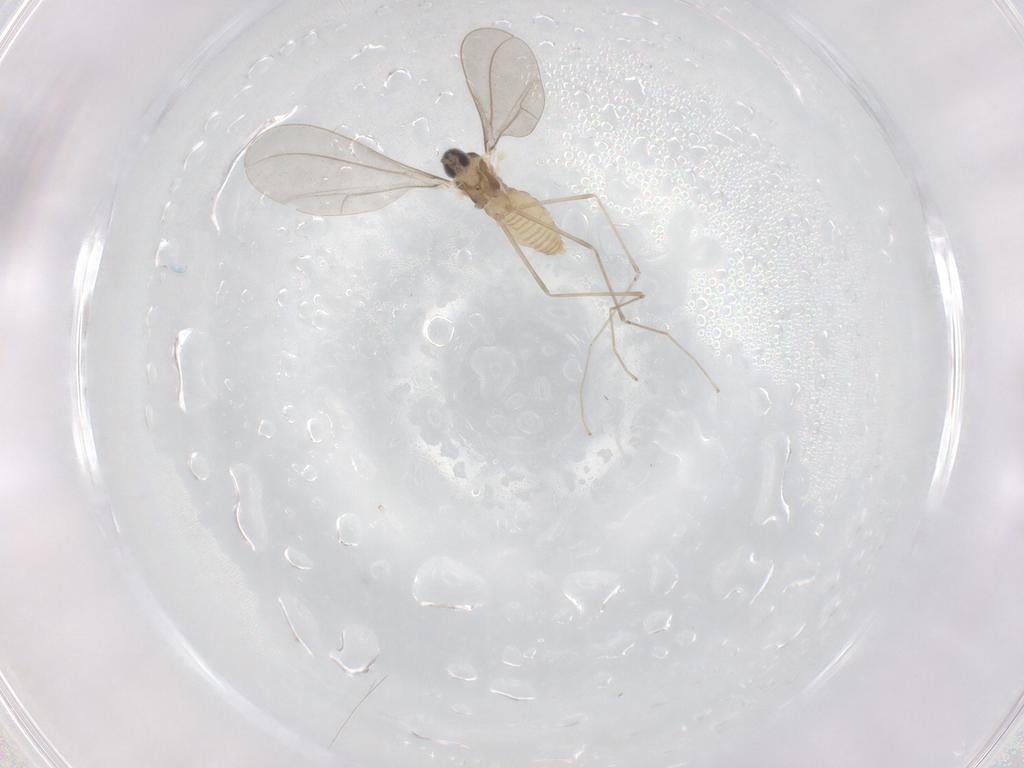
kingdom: Animalia
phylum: Arthropoda
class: Insecta
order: Diptera
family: Cecidomyiidae
